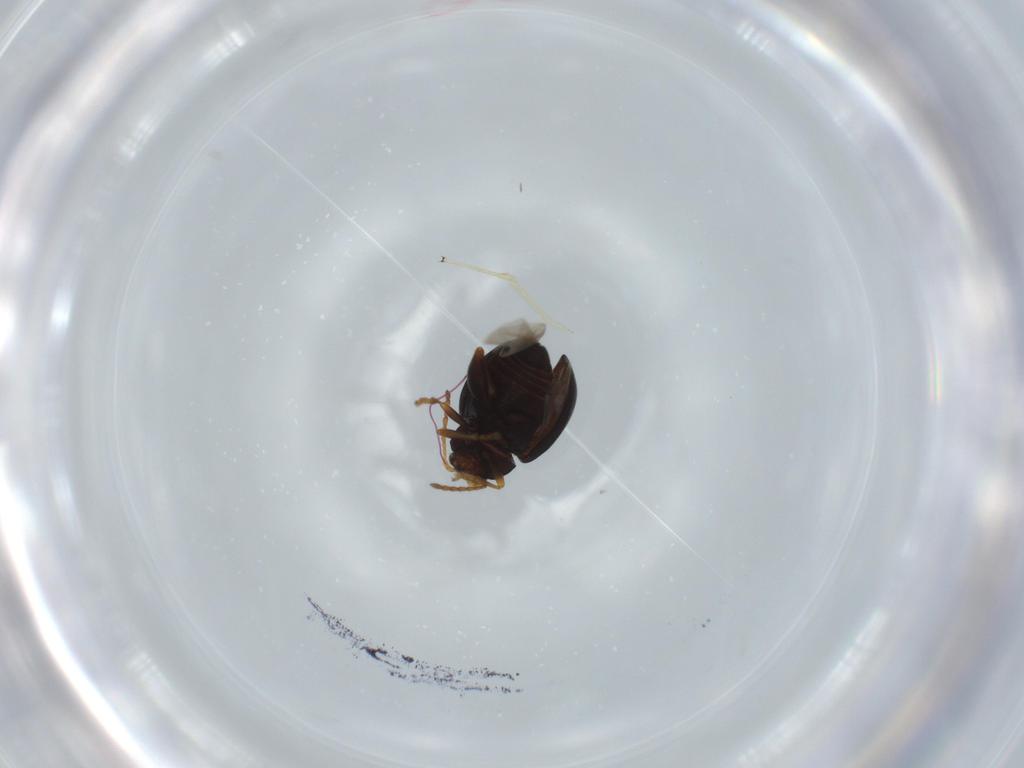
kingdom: Animalia
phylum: Arthropoda
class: Insecta
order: Coleoptera
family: Chrysomelidae
